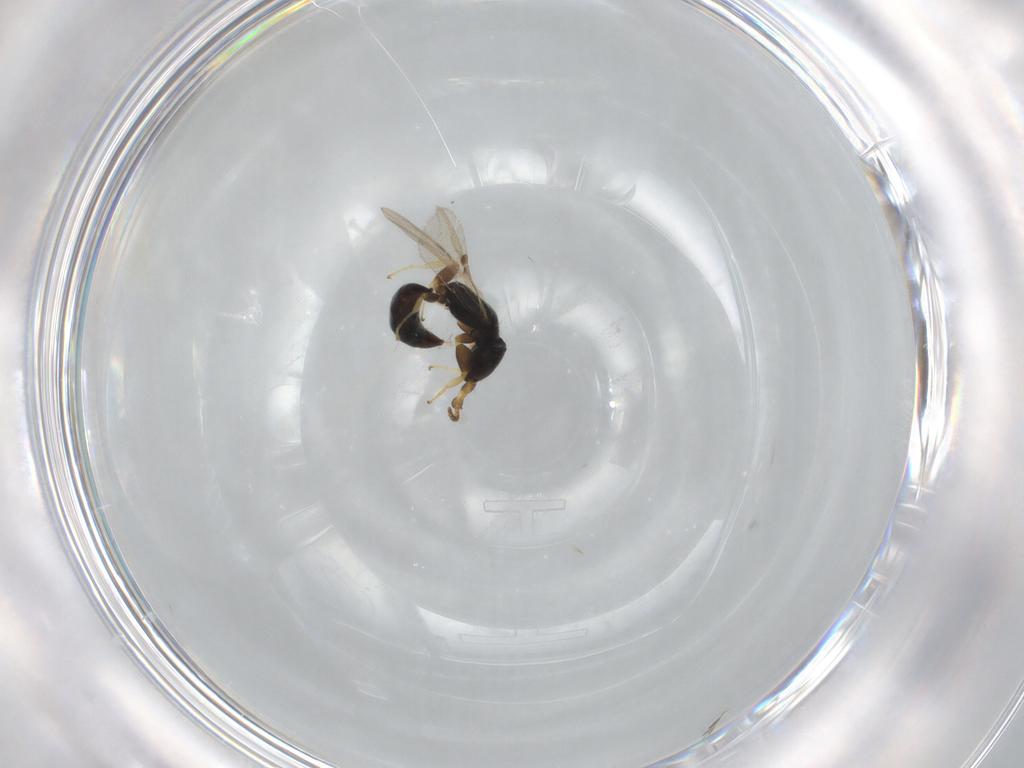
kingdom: Animalia
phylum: Arthropoda
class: Insecta
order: Hymenoptera
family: Bethylidae
